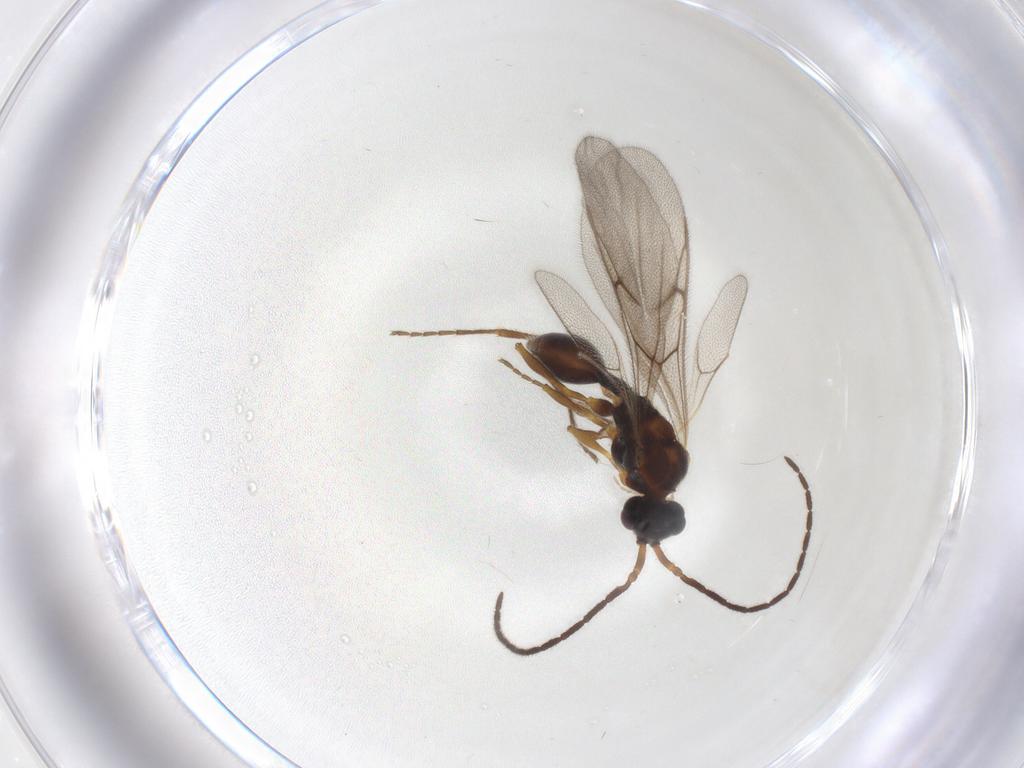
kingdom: Animalia
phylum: Arthropoda
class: Insecta
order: Hymenoptera
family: Diapriidae
